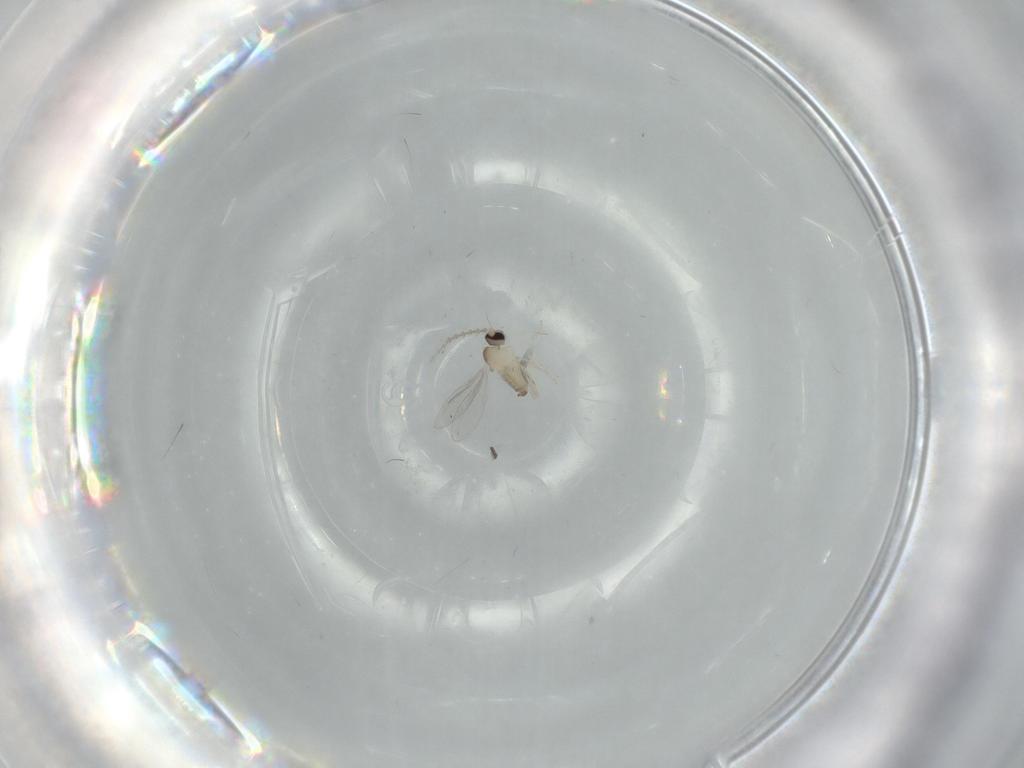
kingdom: Animalia
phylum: Arthropoda
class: Insecta
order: Diptera
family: Cecidomyiidae
